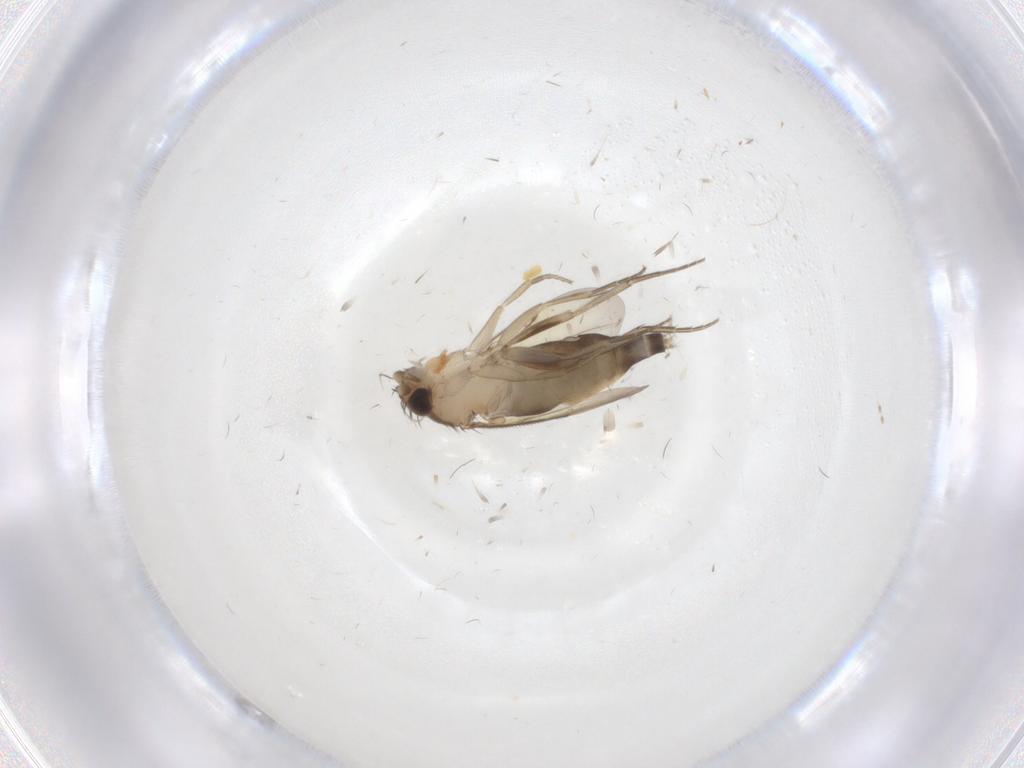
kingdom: Animalia
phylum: Arthropoda
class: Insecta
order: Diptera
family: Cecidomyiidae
